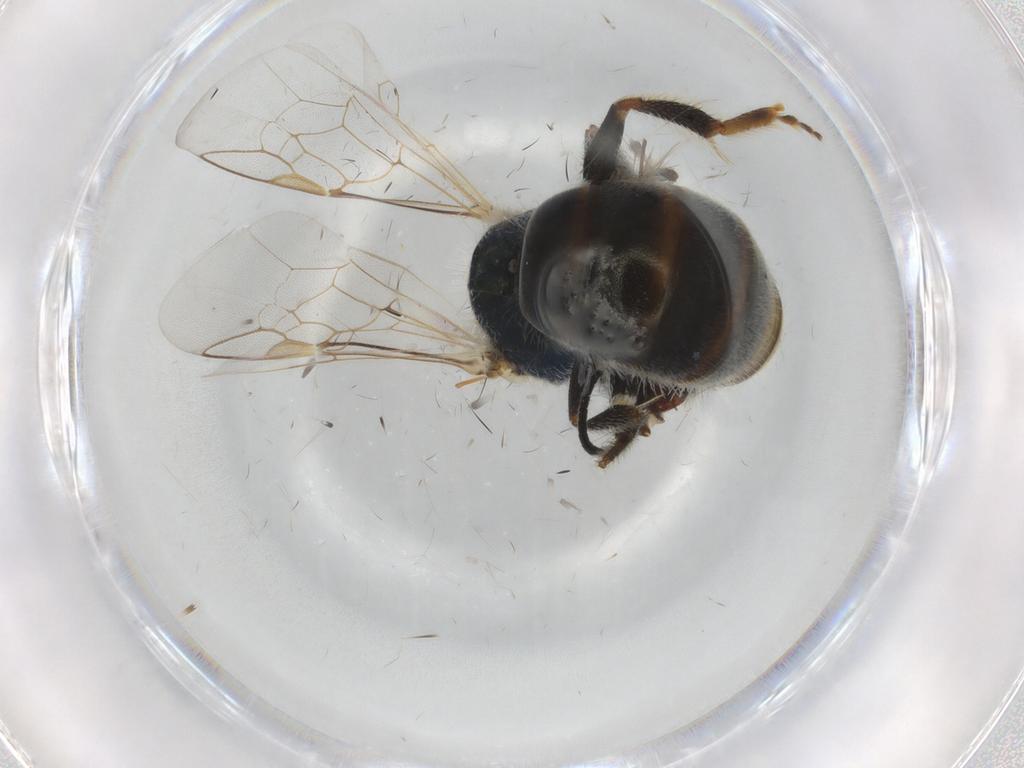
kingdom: Animalia
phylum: Arthropoda
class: Insecta
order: Hymenoptera
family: Halictidae
